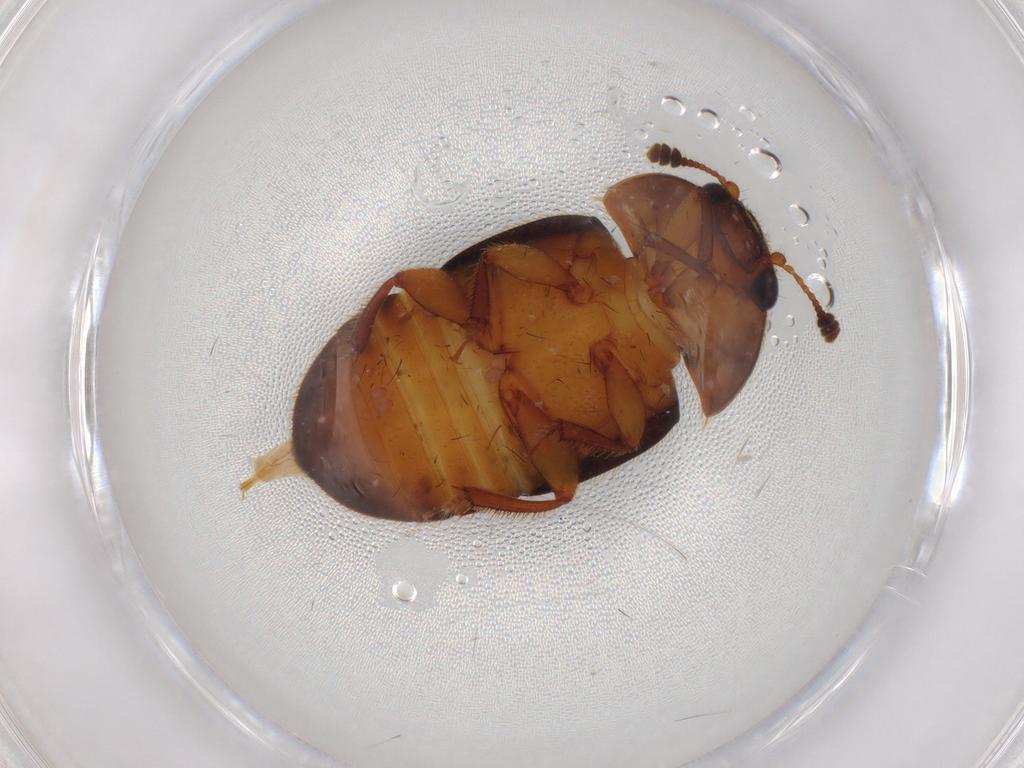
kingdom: Animalia
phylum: Arthropoda
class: Insecta
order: Coleoptera
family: Nitidulidae
